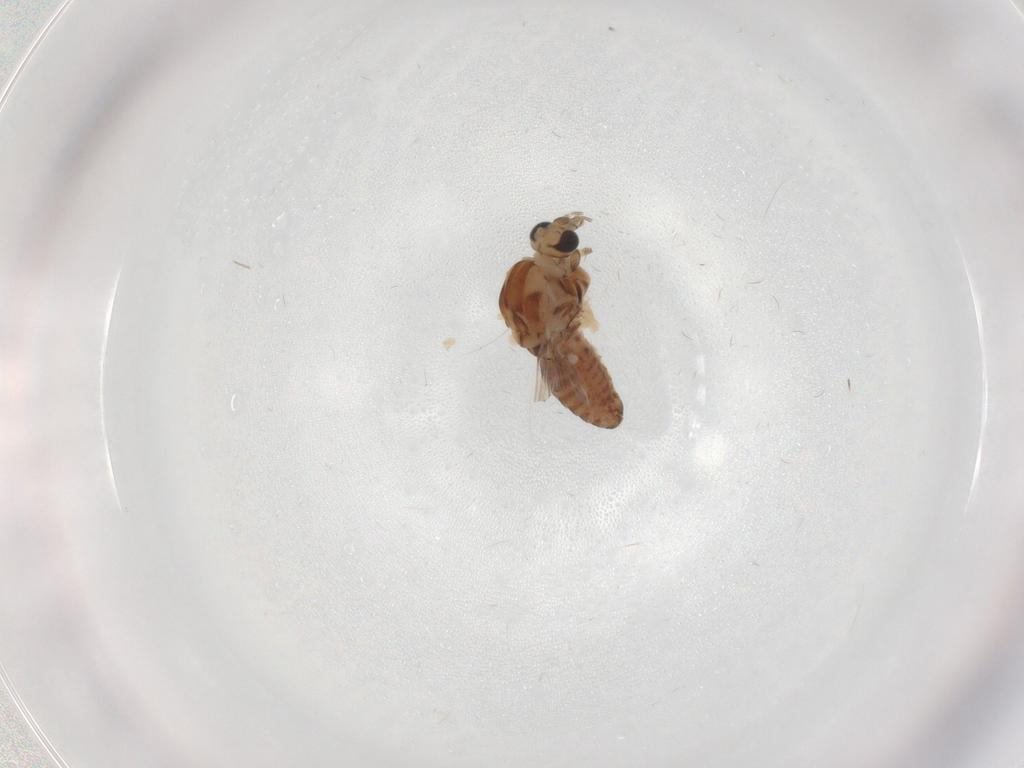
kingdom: Animalia
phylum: Arthropoda
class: Insecta
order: Diptera
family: Chironomidae
